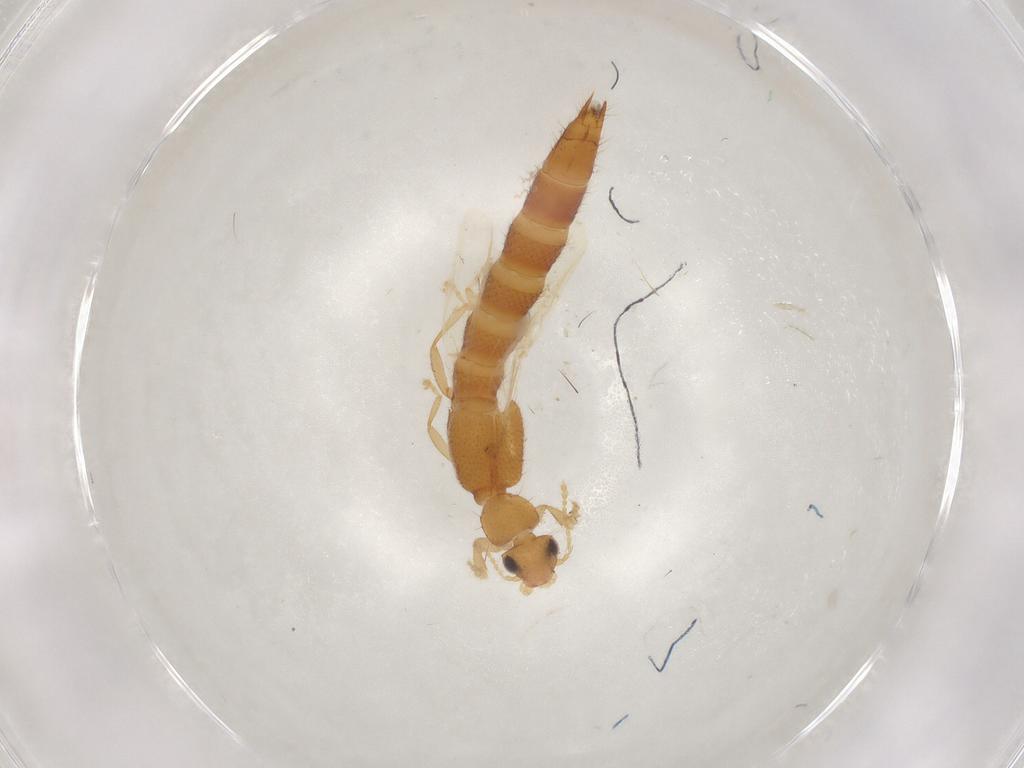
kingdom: Animalia
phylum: Arthropoda
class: Insecta
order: Coleoptera
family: Staphylinidae
